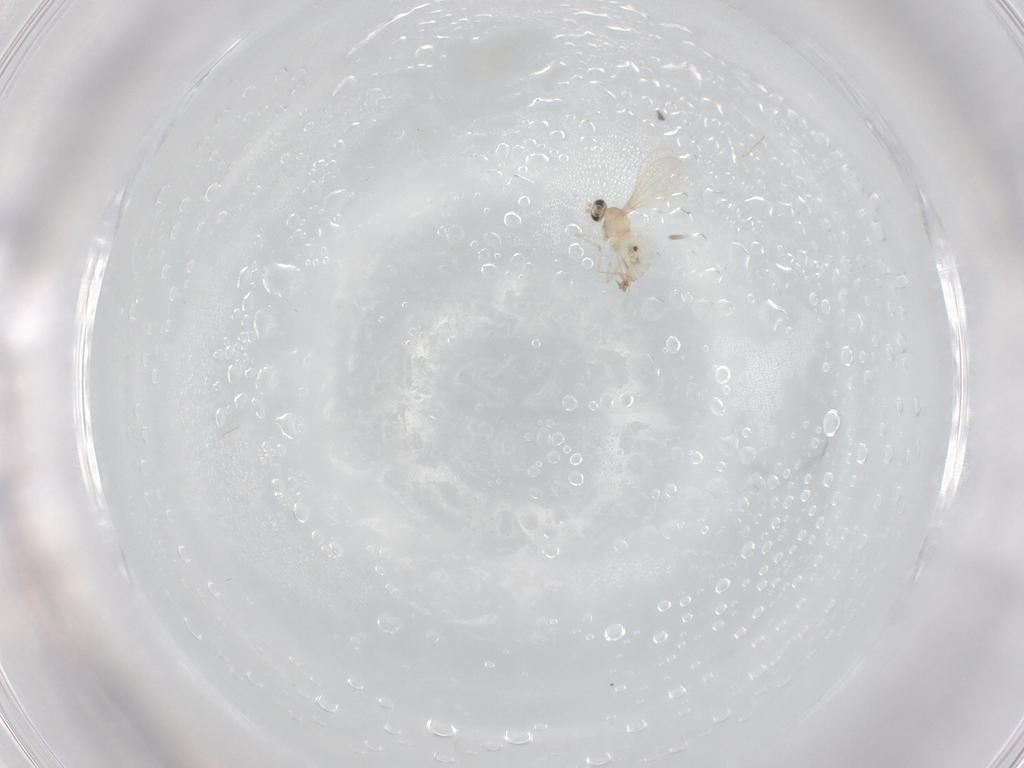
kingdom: Animalia
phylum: Arthropoda
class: Insecta
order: Diptera
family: Cecidomyiidae
